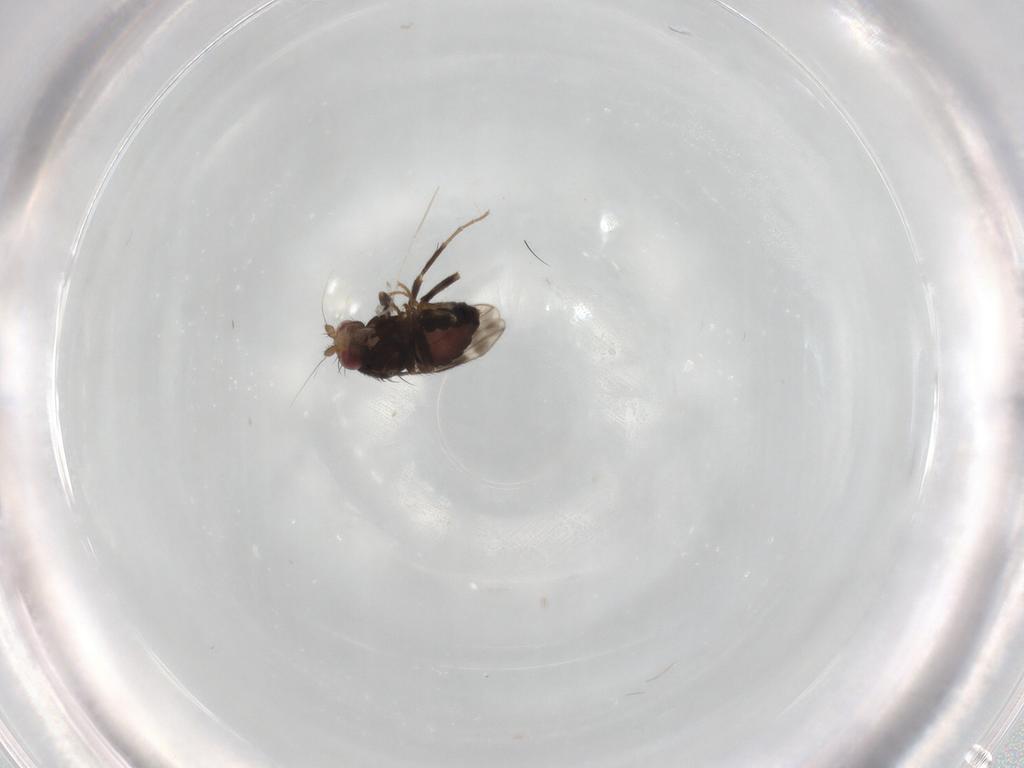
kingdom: Animalia
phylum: Arthropoda
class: Insecta
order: Diptera
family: Sphaeroceridae
